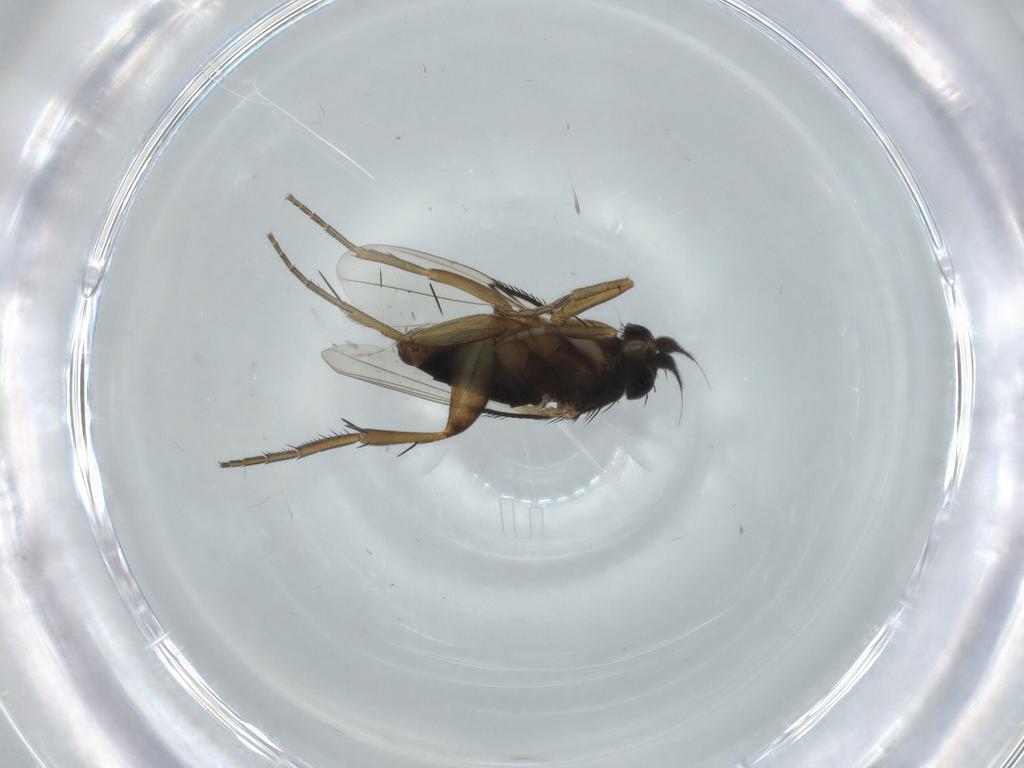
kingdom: Animalia
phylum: Arthropoda
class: Insecta
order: Diptera
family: Phoridae
